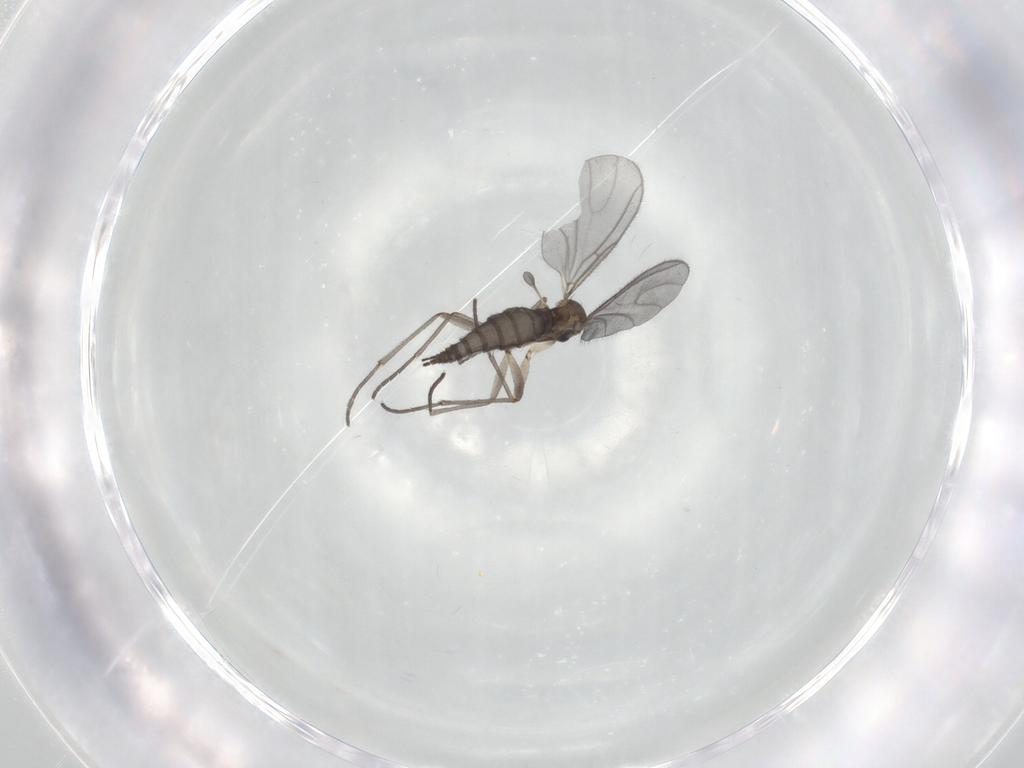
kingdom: Animalia
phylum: Arthropoda
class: Insecta
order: Diptera
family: Sciaridae
